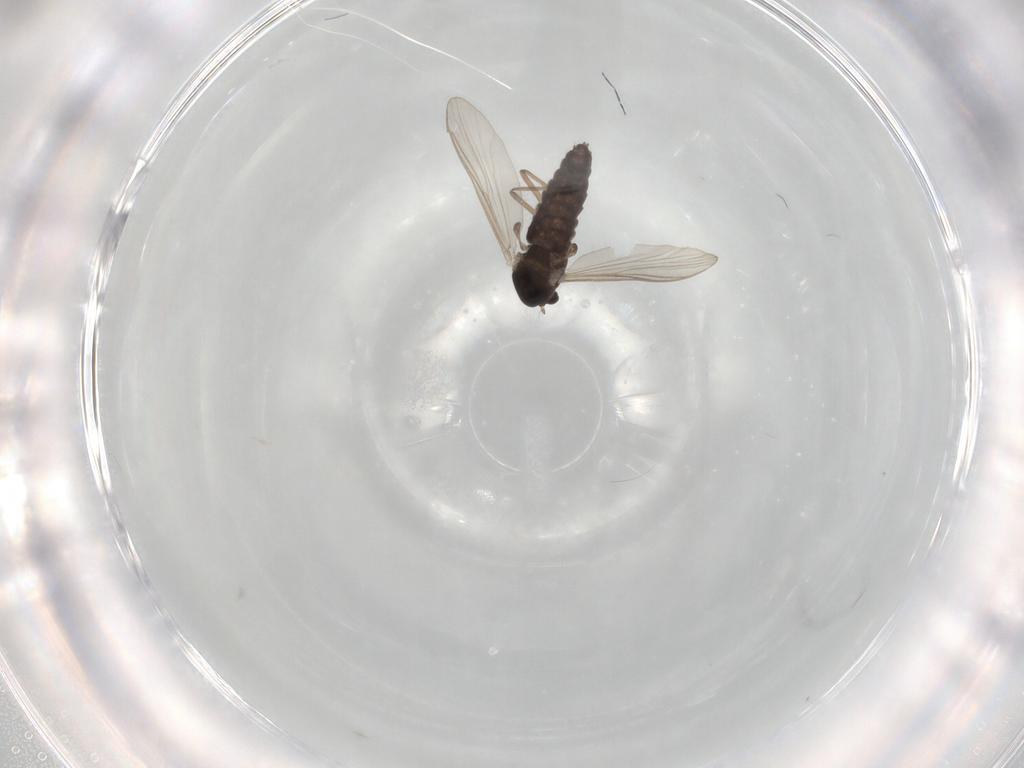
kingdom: Animalia
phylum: Arthropoda
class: Insecta
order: Diptera
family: Chironomidae
